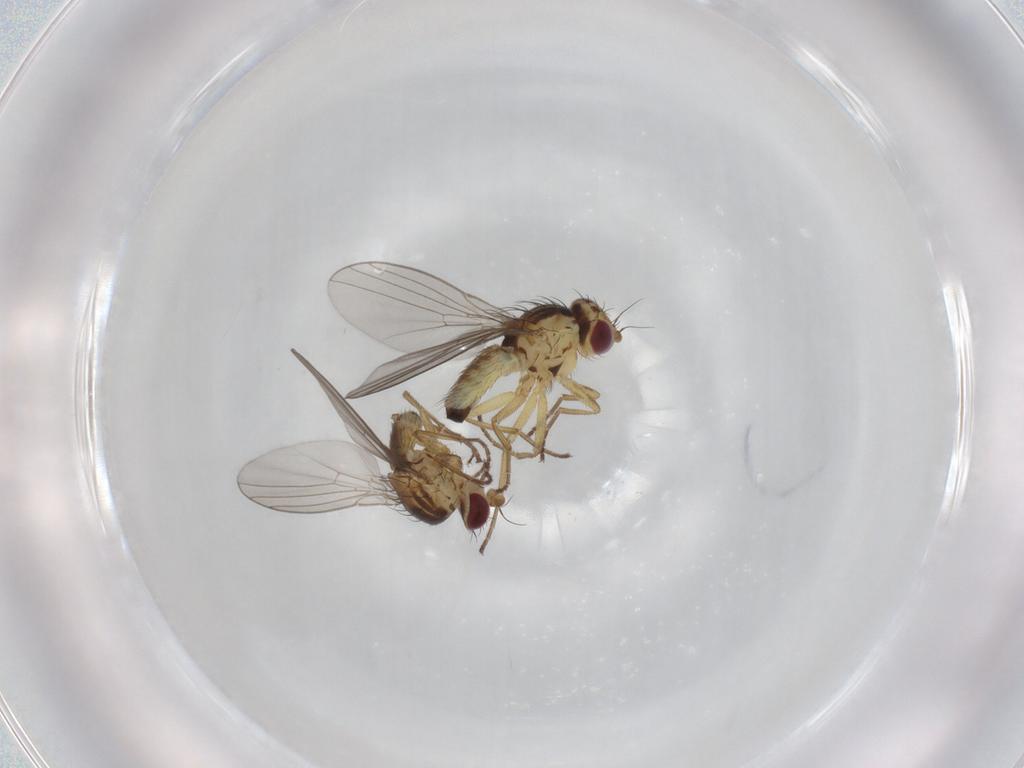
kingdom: Animalia
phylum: Arthropoda
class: Insecta
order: Diptera
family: Agromyzidae
